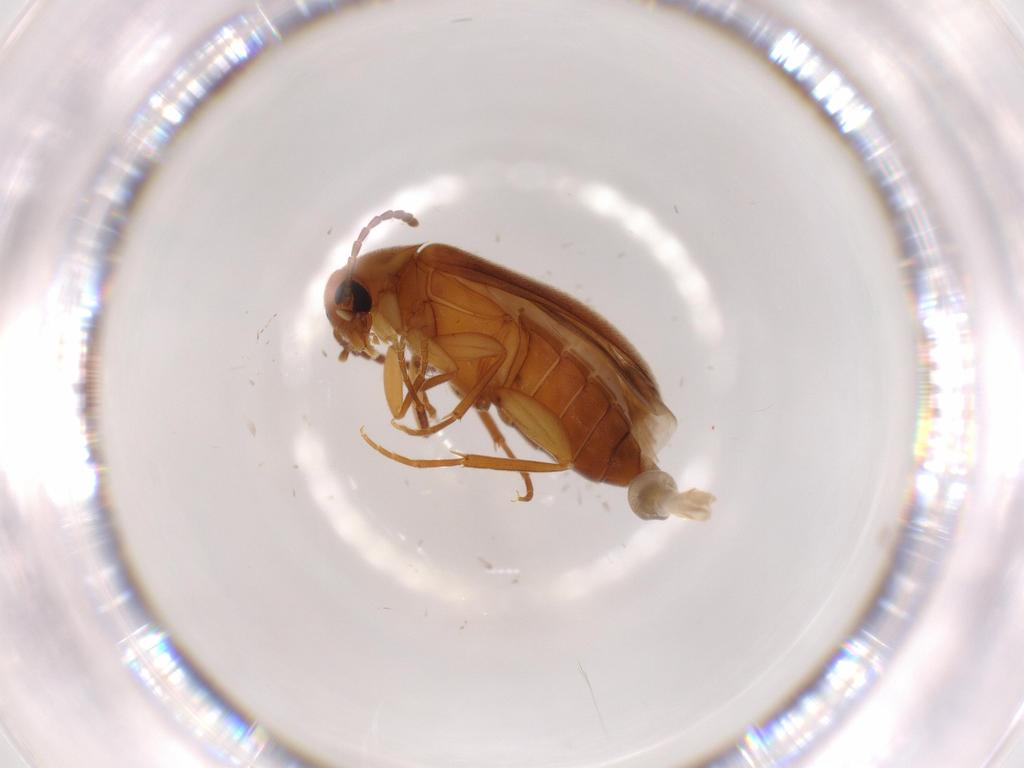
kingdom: Animalia
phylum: Arthropoda
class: Insecta
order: Coleoptera
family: Scraptiidae
